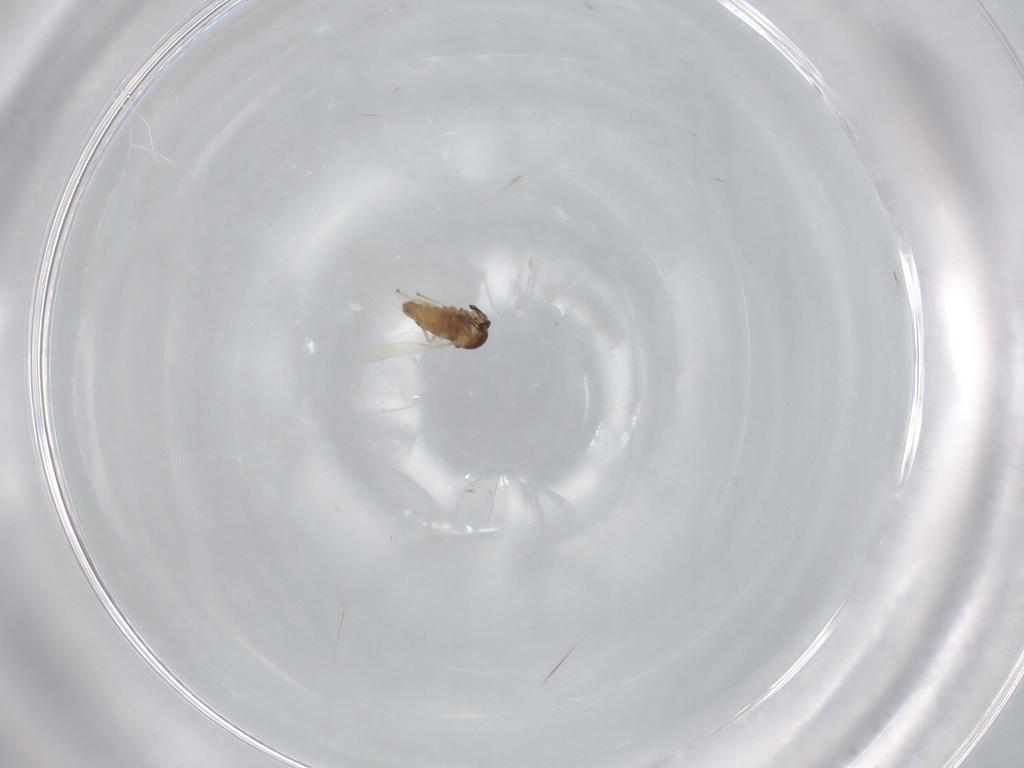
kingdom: Animalia
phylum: Arthropoda
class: Insecta
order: Diptera
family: Cecidomyiidae
